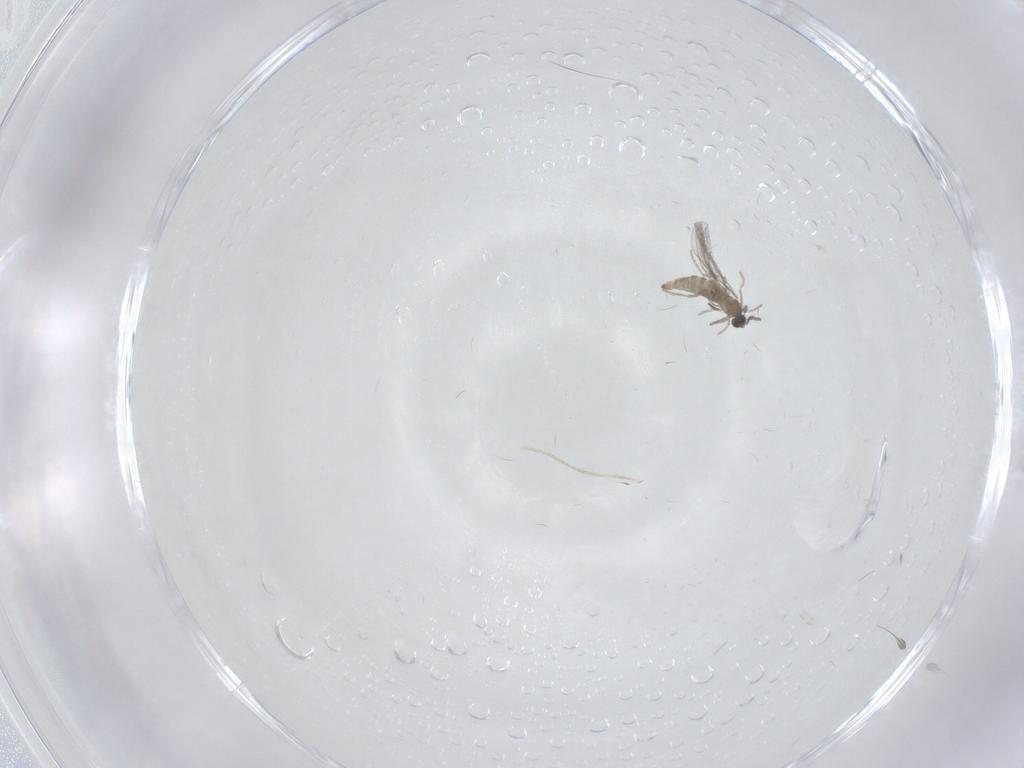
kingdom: Animalia
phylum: Arthropoda
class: Insecta
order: Diptera
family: Cecidomyiidae
